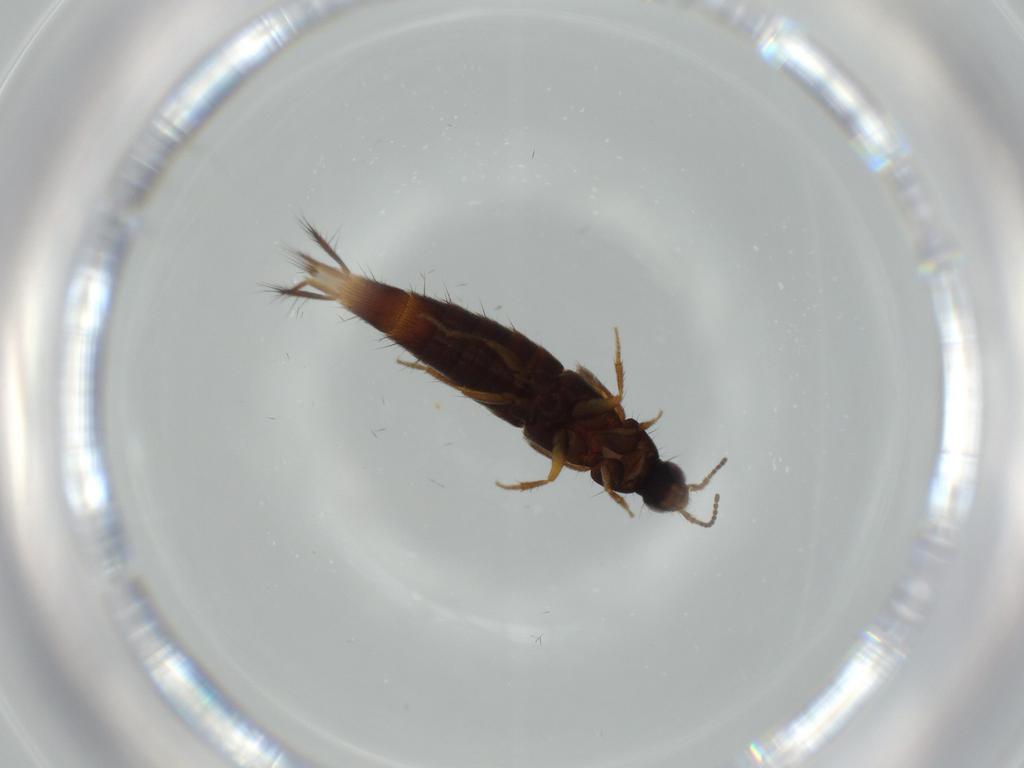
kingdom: Animalia
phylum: Arthropoda
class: Insecta
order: Coleoptera
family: Staphylinidae
